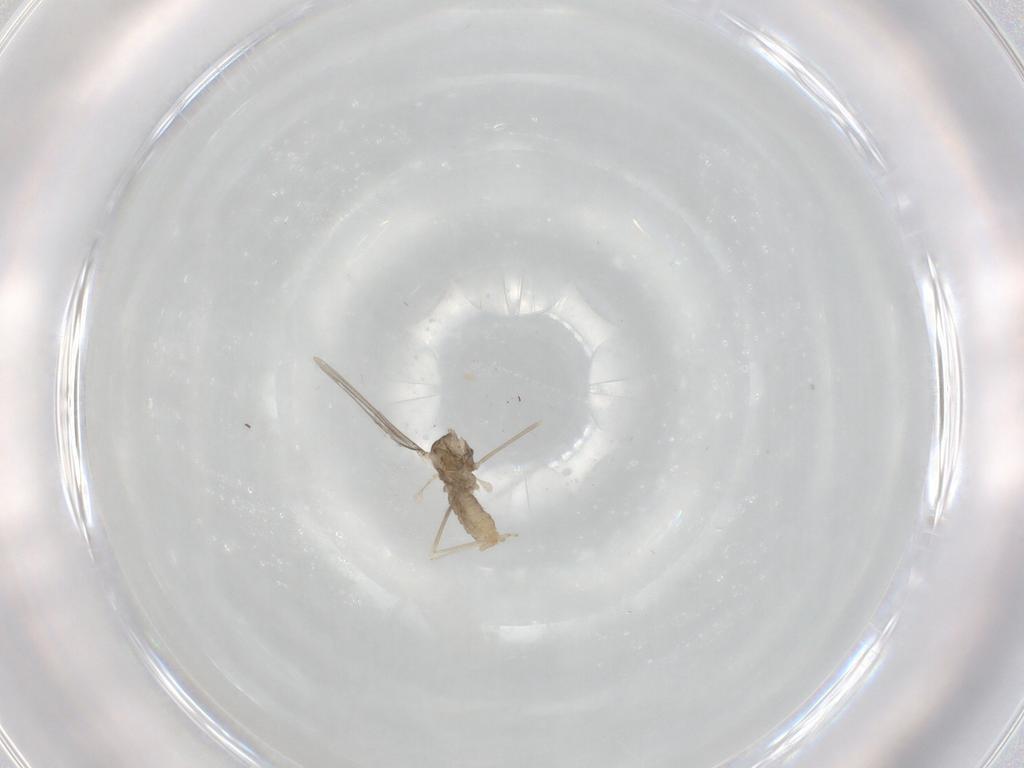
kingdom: Animalia
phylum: Arthropoda
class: Insecta
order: Diptera
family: Cecidomyiidae
